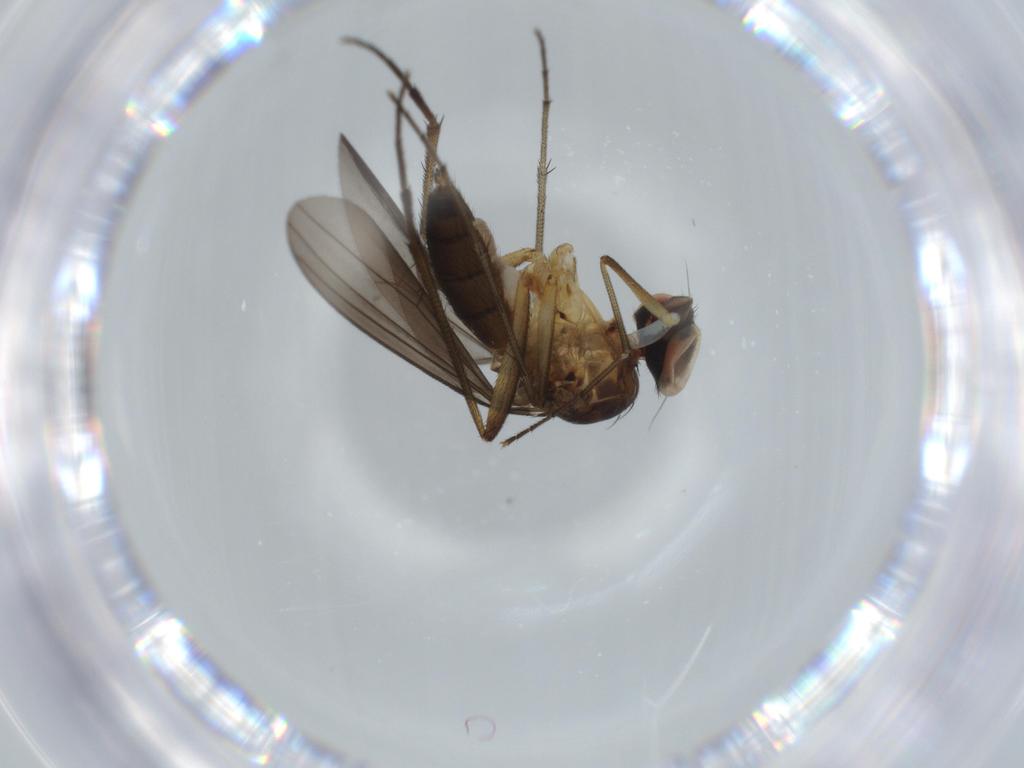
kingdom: Animalia
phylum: Arthropoda
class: Insecta
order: Diptera
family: Dolichopodidae
